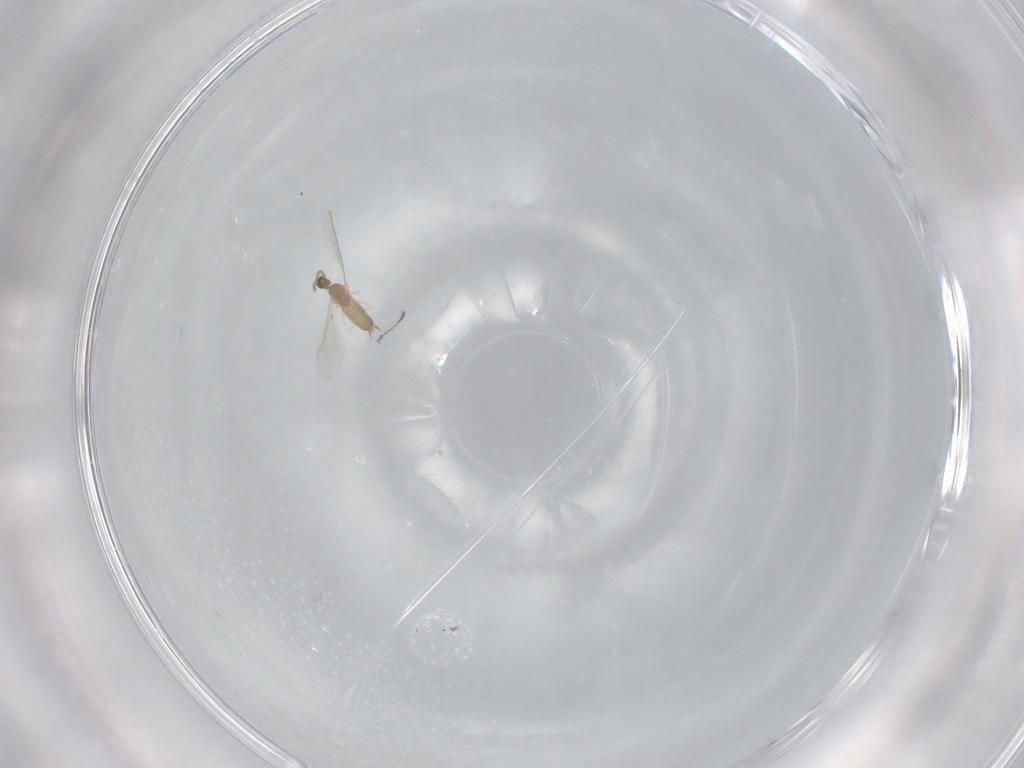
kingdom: Animalia
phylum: Arthropoda
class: Insecta
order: Diptera
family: Cecidomyiidae
